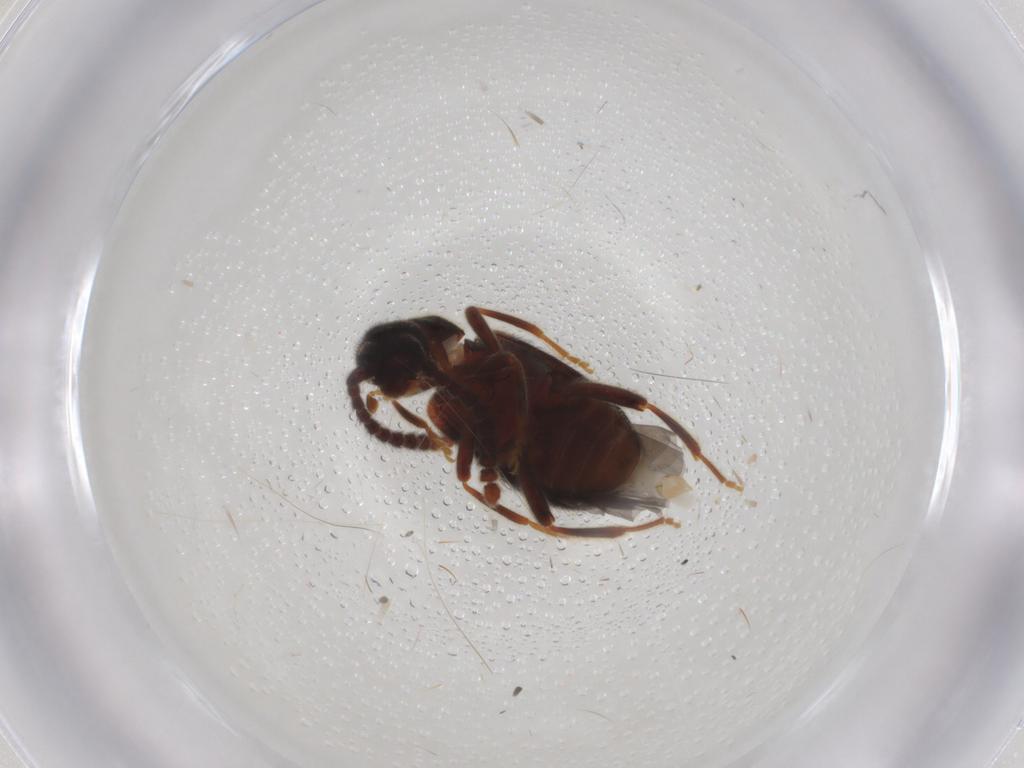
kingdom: Animalia
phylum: Arthropoda
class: Insecta
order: Coleoptera
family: Aderidae
